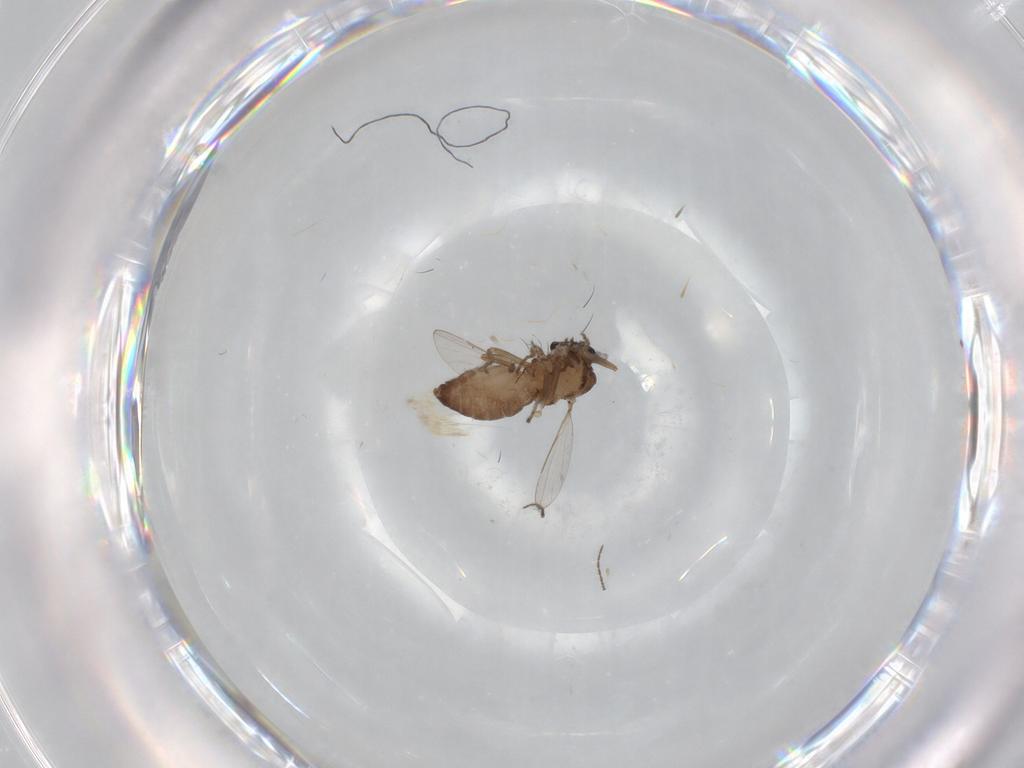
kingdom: Animalia
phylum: Arthropoda
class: Insecta
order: Diptera
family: Ceratopogonidae
